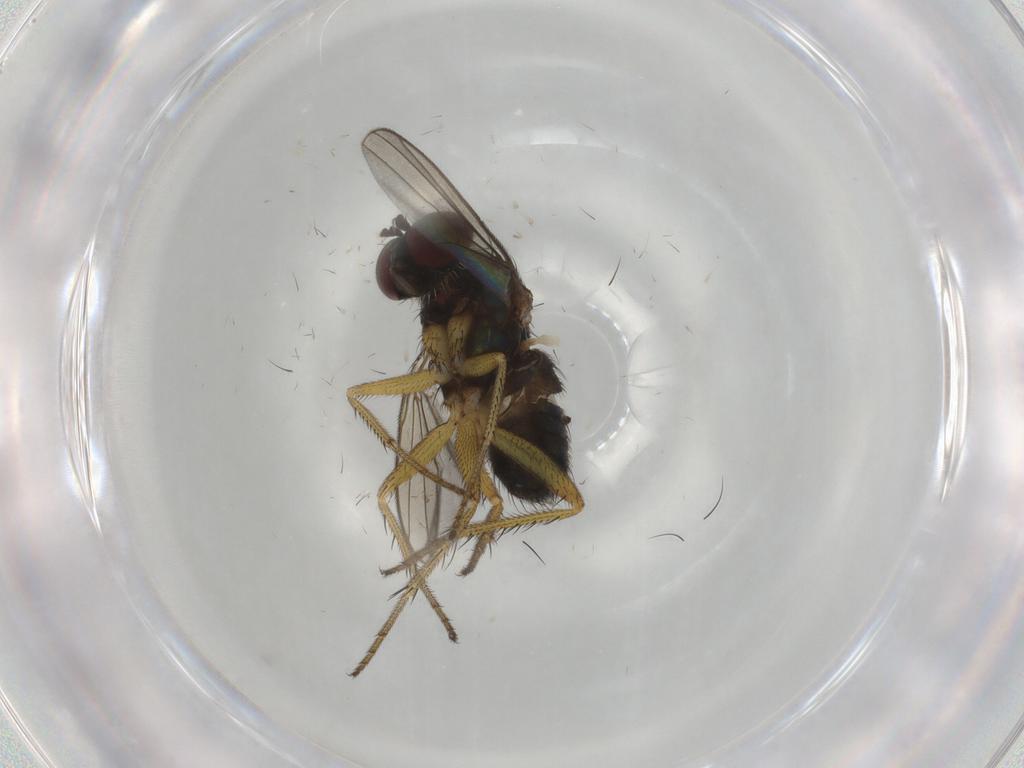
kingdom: Animalia
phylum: Arthropoda
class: Insecta
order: Diptera
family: Dolichopodidae
